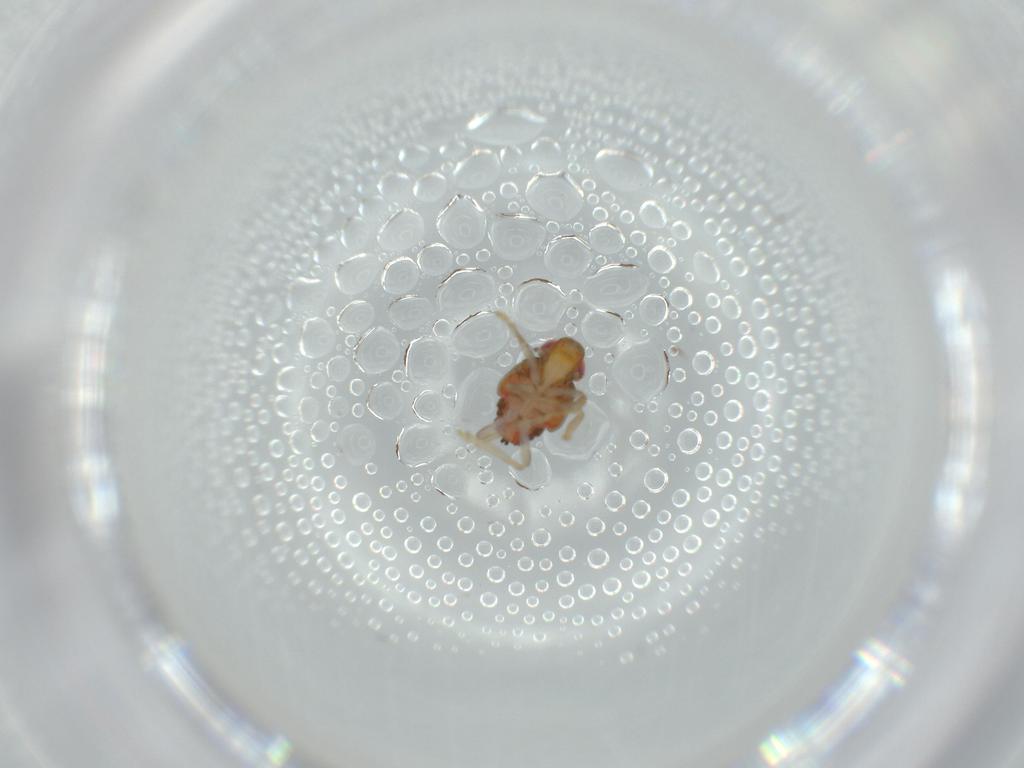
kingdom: Animalia
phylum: Arthropoda
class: Insecta
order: Hemiptera
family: Issidae
